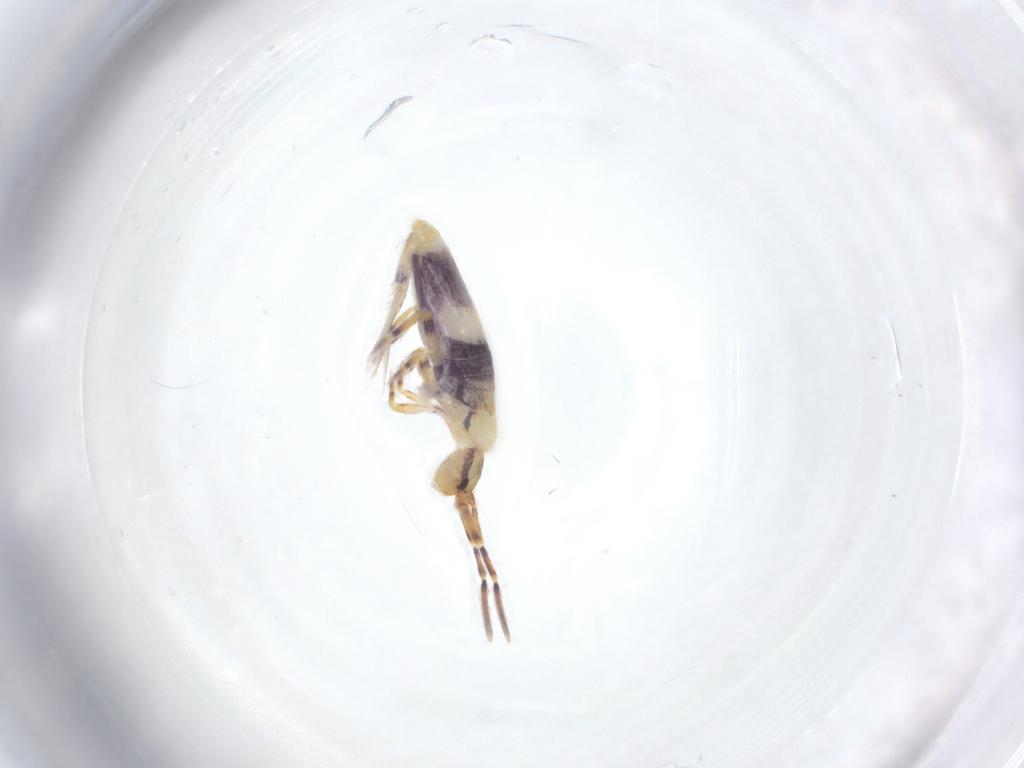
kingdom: Animalia
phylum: Arthropoda
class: Collembola
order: Entomobryomorpha
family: Entomobryidae
